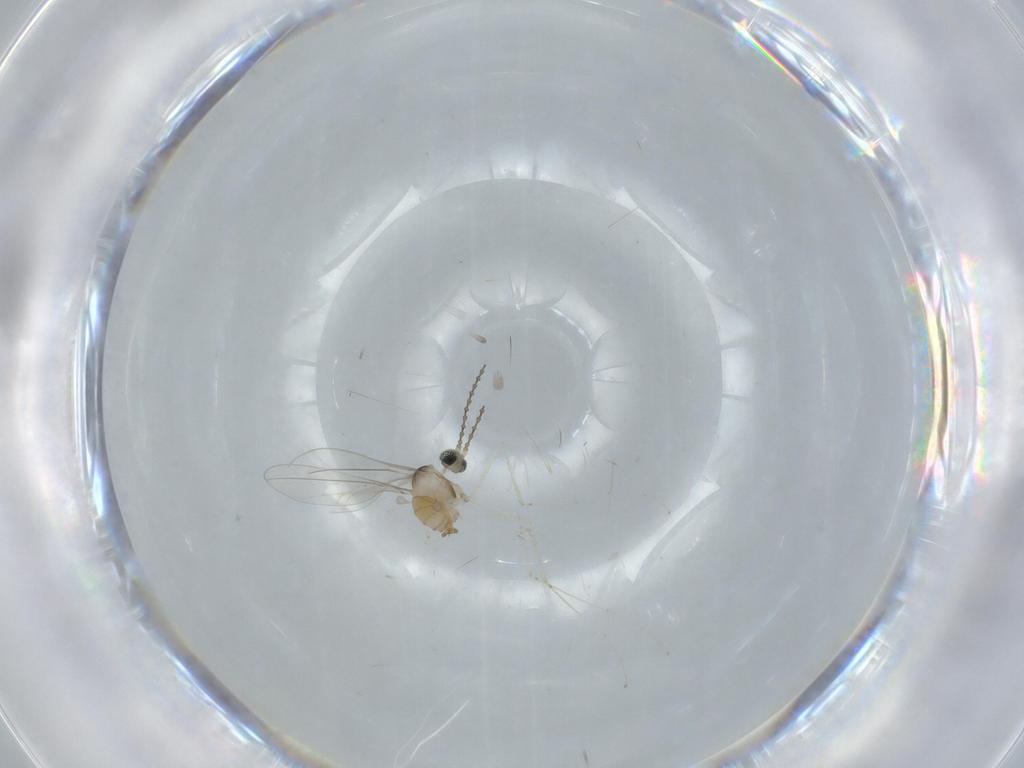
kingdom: Animalia
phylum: Arthropoda
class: Insecta
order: Diptera
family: Cecidomyiidae
